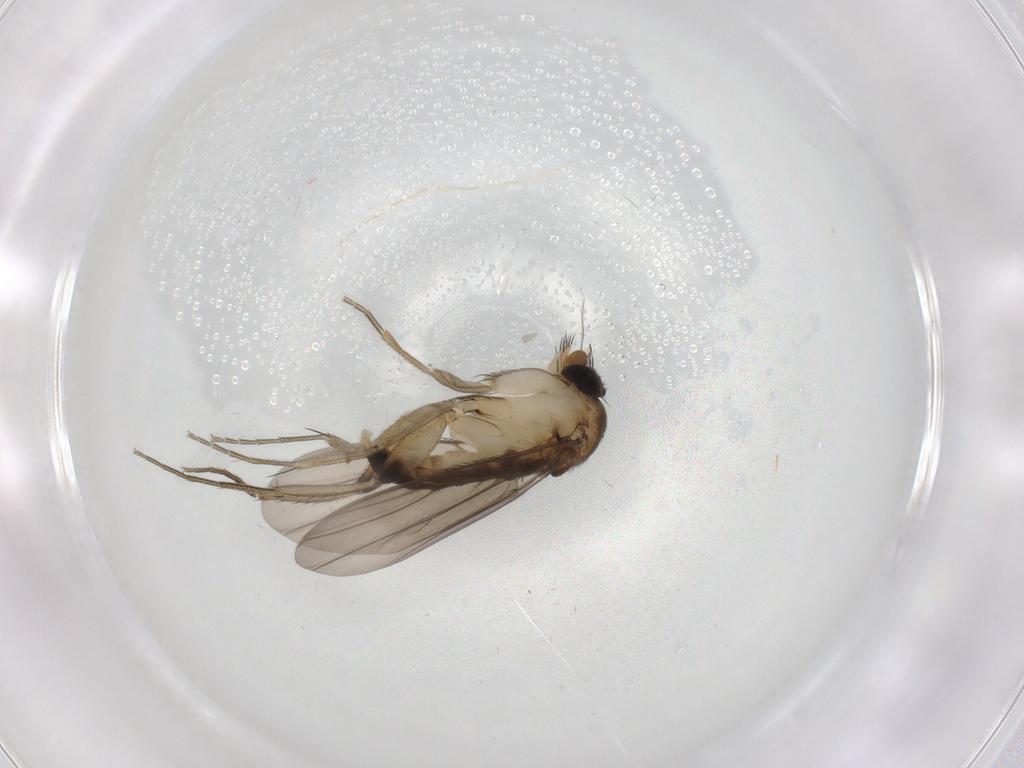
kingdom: Animalia
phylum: Arthropoda
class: Insecta
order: Diptera
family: Phoridae
